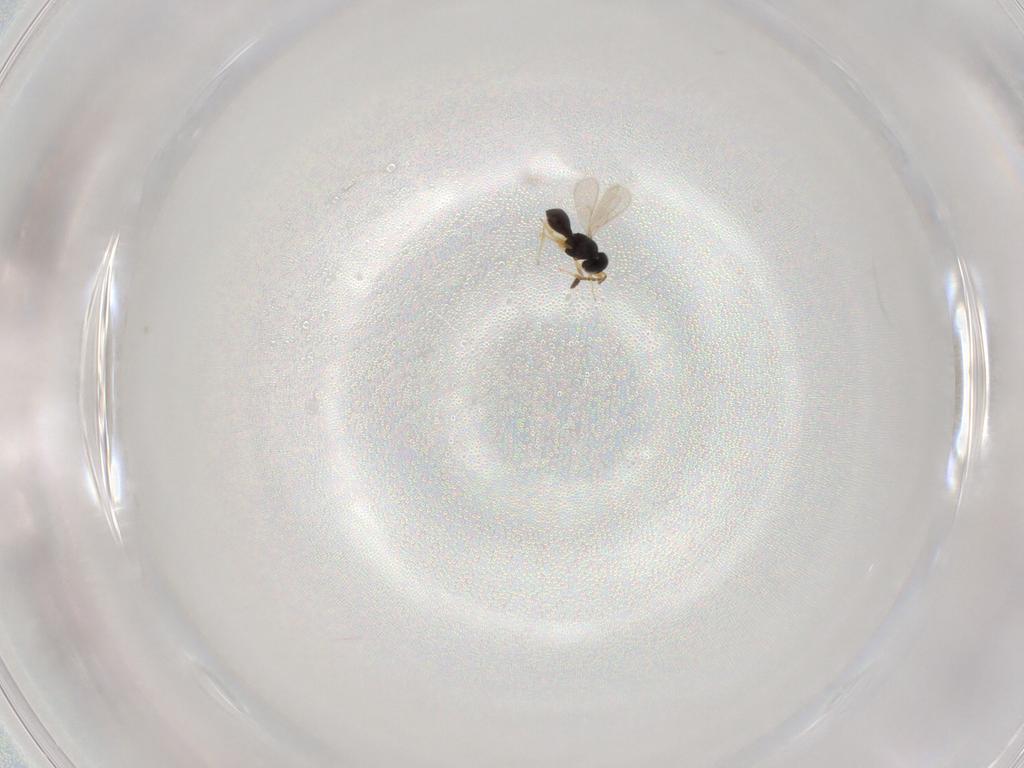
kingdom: Animalia
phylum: Arthropoda
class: Insecta
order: Hymenoptera
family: Scelionidae
